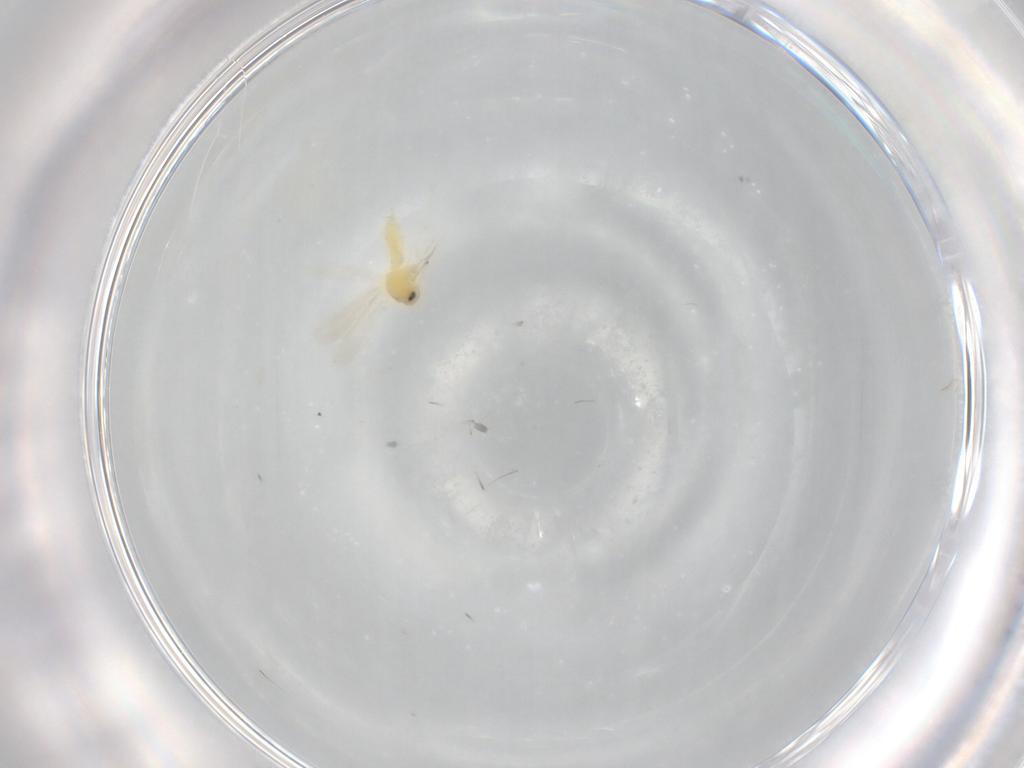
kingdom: Animalia
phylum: Arthropoda
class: Insecta
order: Hemiptera
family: Aleyrodidae
